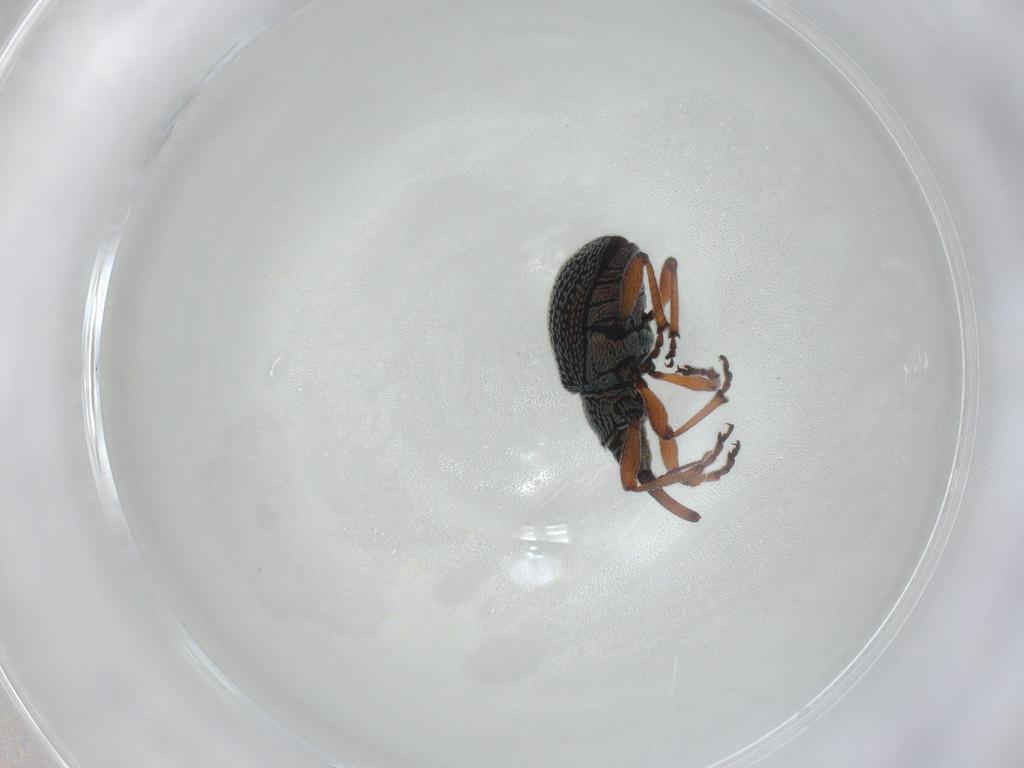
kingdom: Animalia
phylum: Arthropoda
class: Insecta
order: Coleoptera
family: Brentidae
